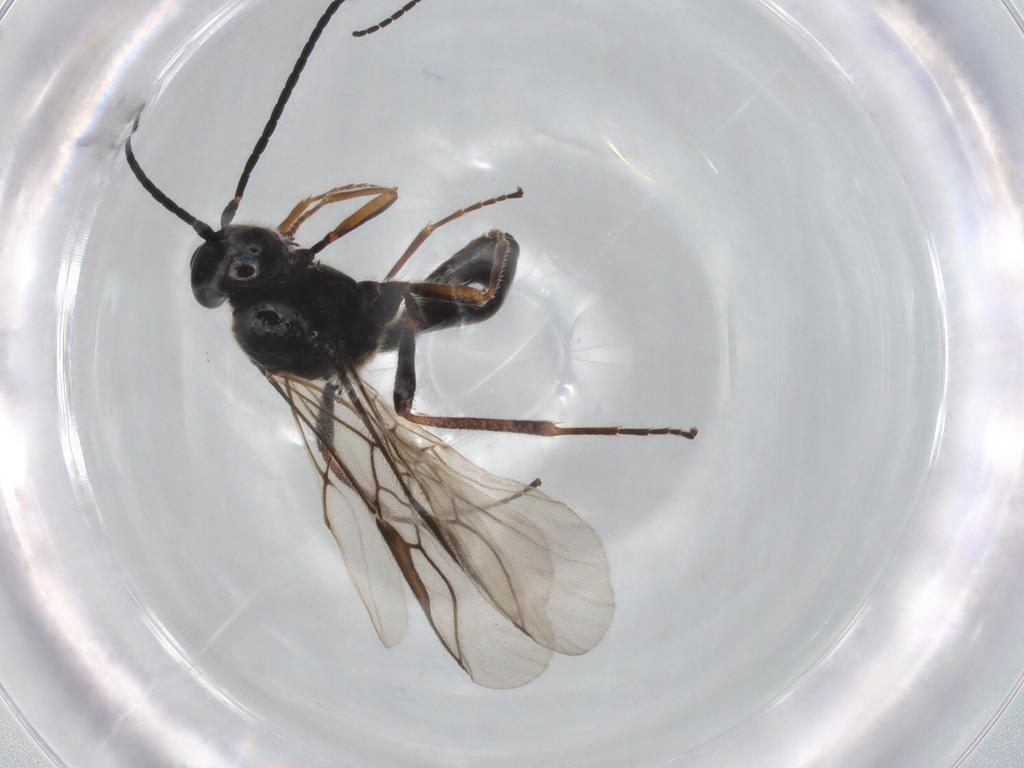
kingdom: Animalia
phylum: Arthropoda
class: Insecta
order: Hymenoptera
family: Braconidae
